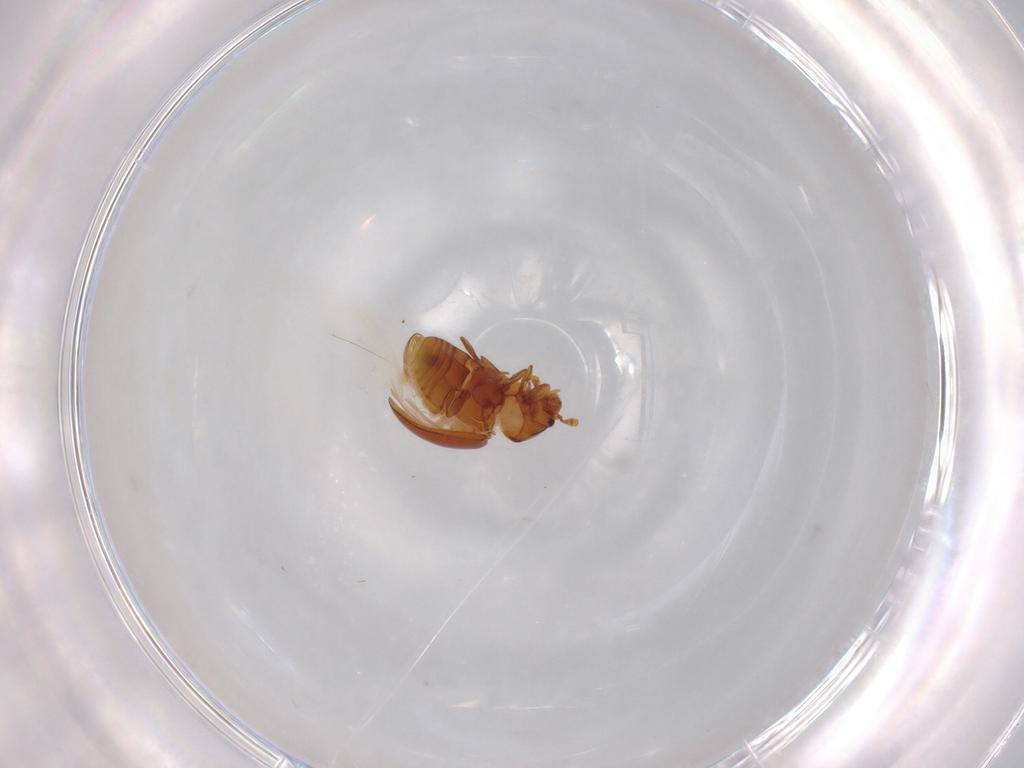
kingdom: Animalia
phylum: Arthropoda
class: Insecta
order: Coleoptera
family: Eupsilobiidae
